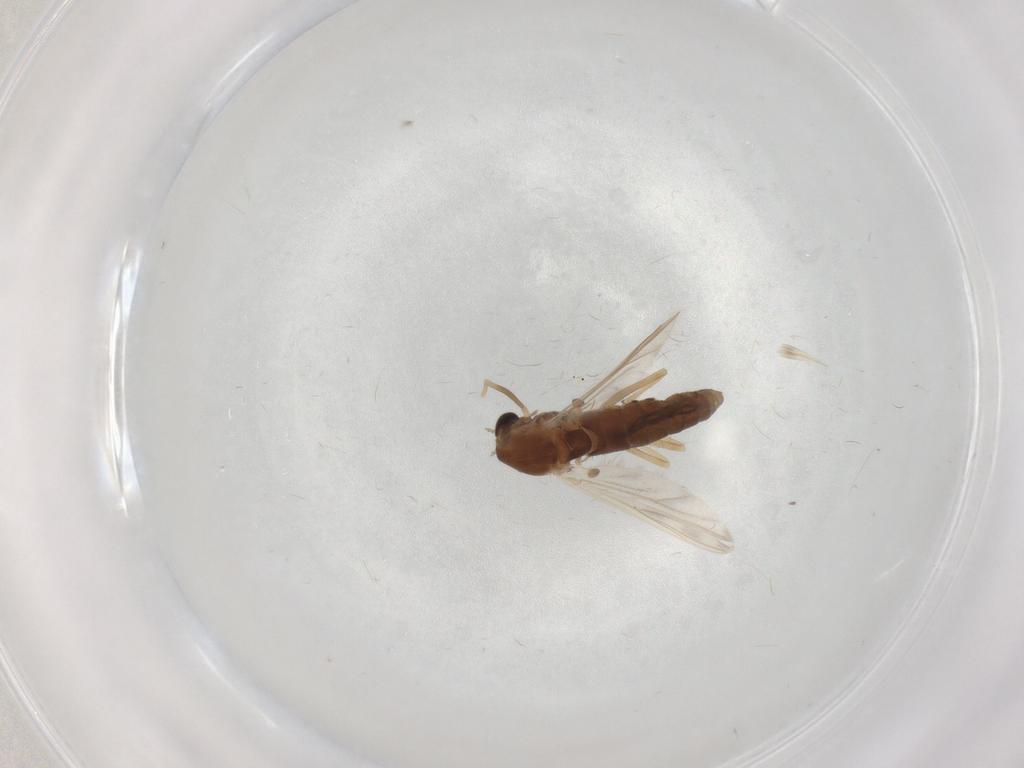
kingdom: Animalia
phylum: Arthropoda
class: Insecta
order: Diptera
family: Chironomidae
